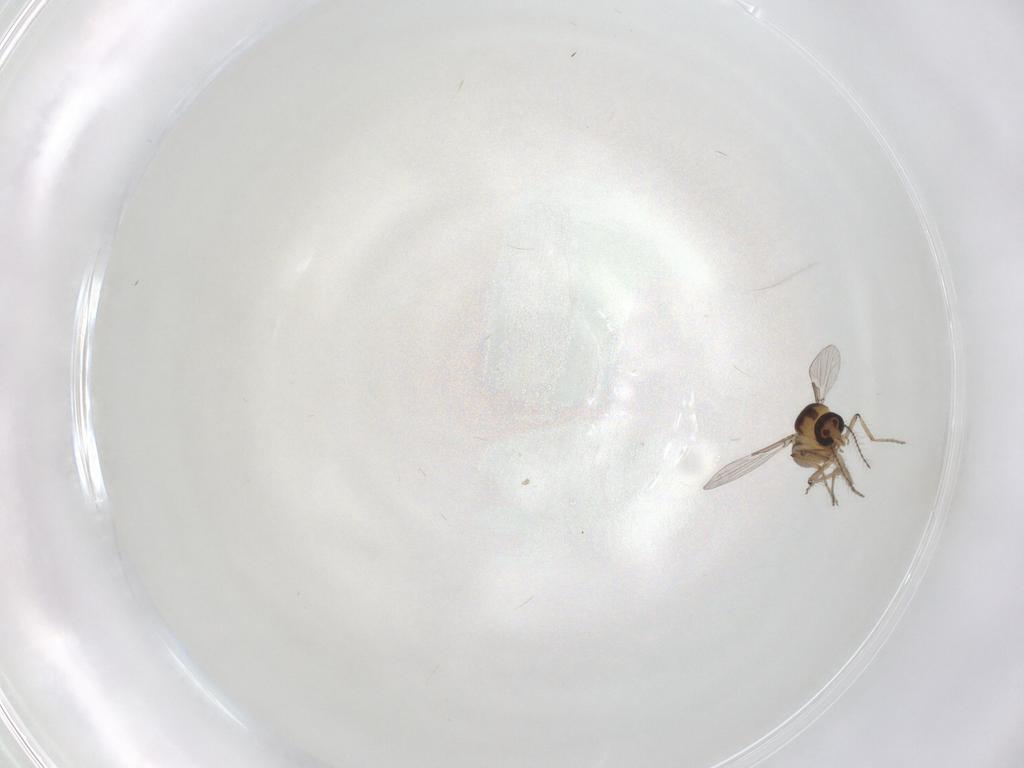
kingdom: Animalia
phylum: Arthropoda
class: Insecta
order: Diptera
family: Ceratopogonidae
